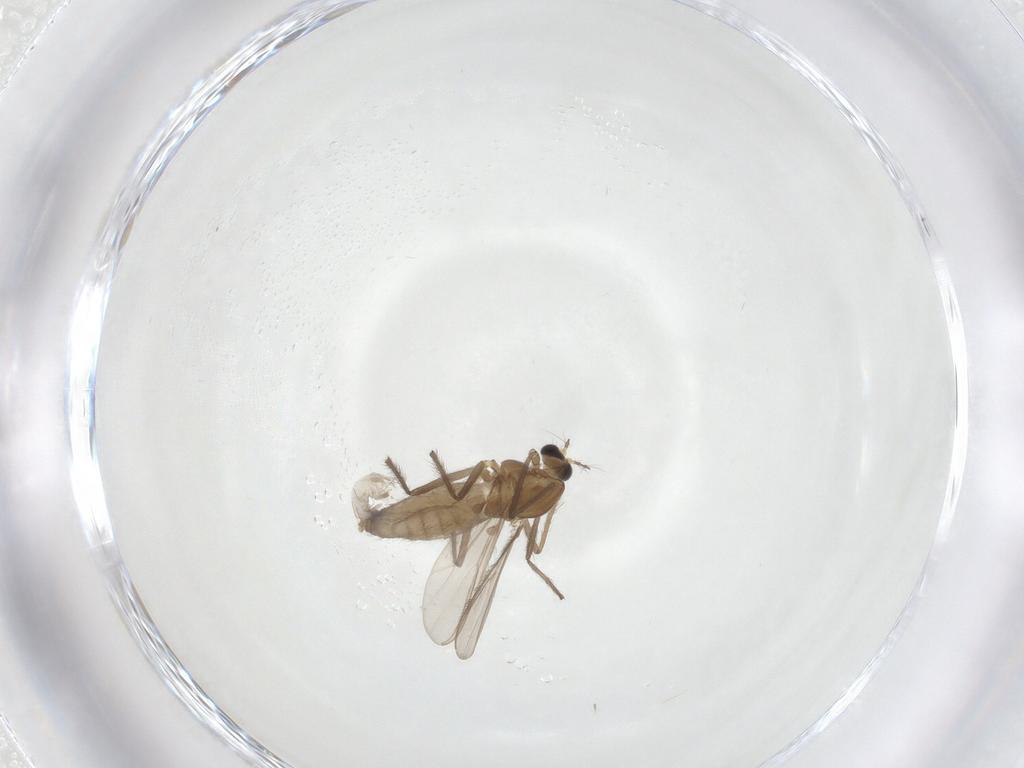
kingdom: Animalia
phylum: Arthropoda
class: Insecta
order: Diptera
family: Chironomidae
